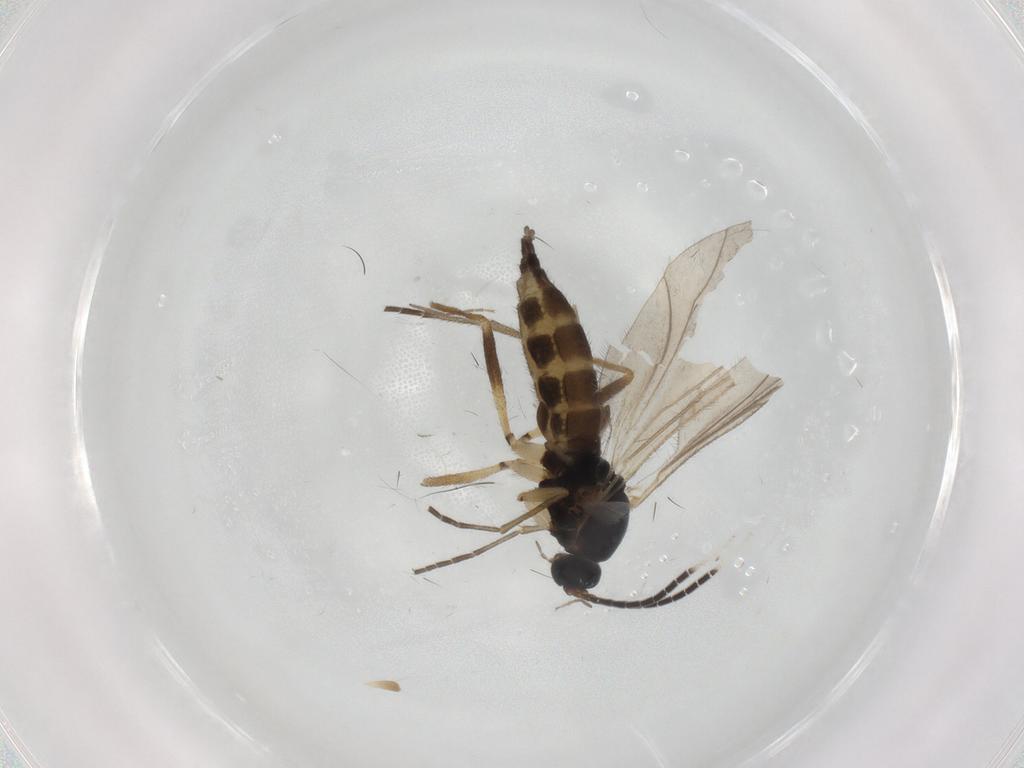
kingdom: Animalia
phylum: Arthropoda
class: Insecta
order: Diptera
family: Sciaridae
